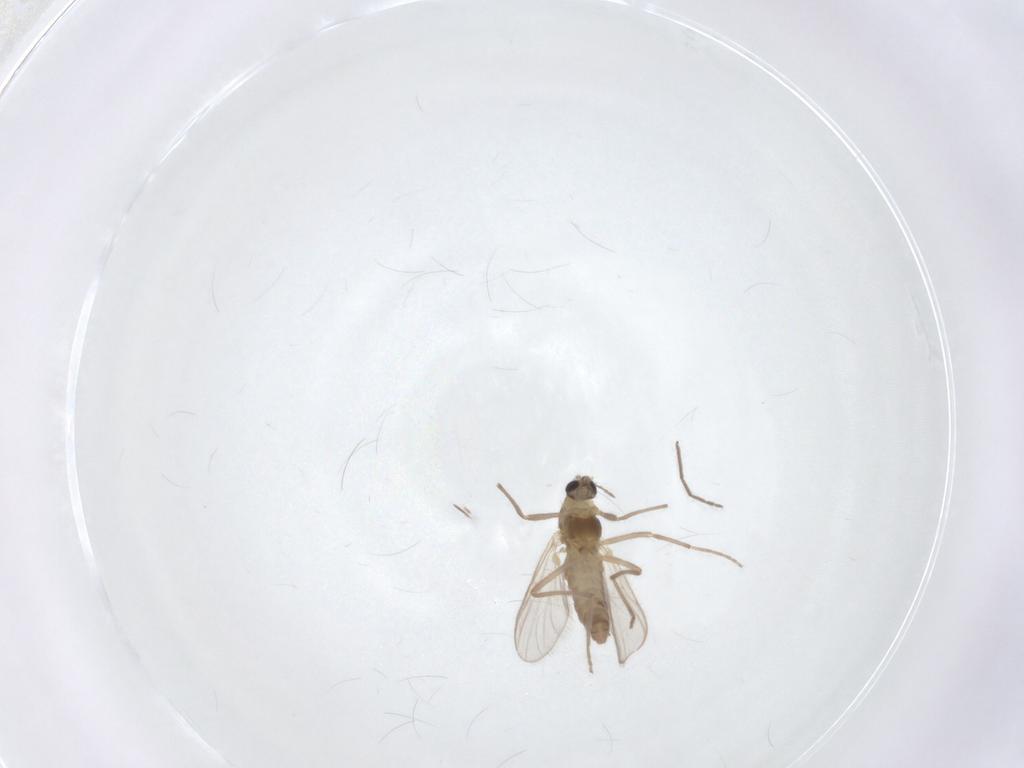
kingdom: Animalia
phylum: Arthropoda
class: Insecta
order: Diptera
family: Chironomidae
